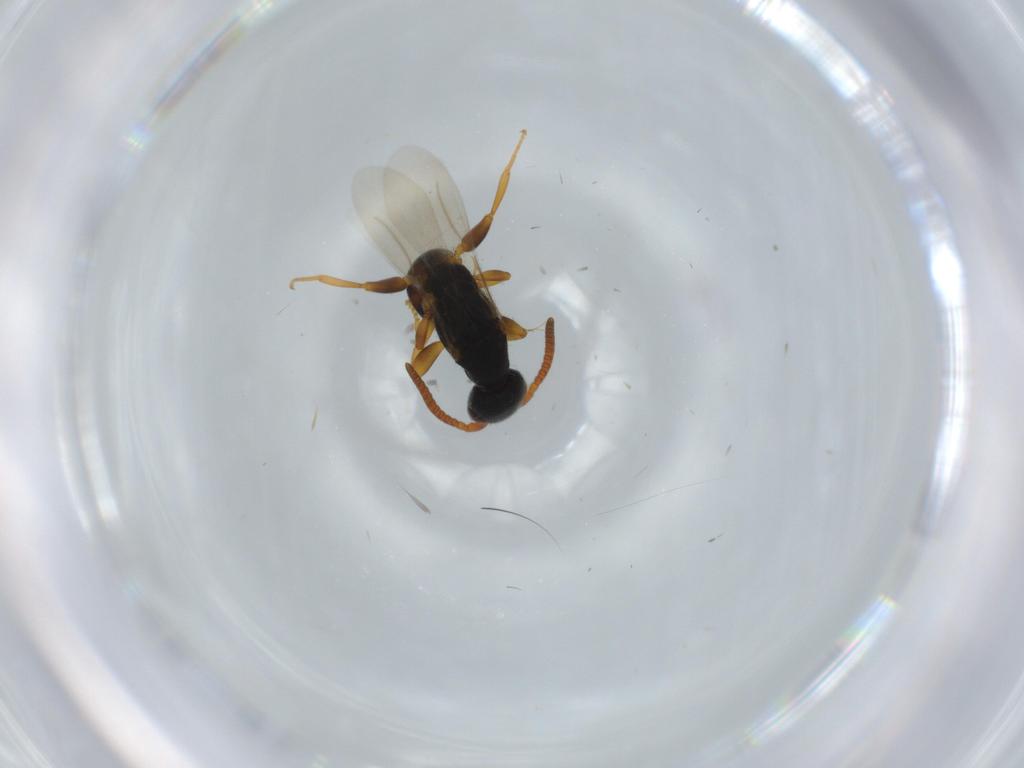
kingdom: Animalia
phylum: Arthropoda
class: Insecta
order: Hymenoptera
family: Bethylidae
